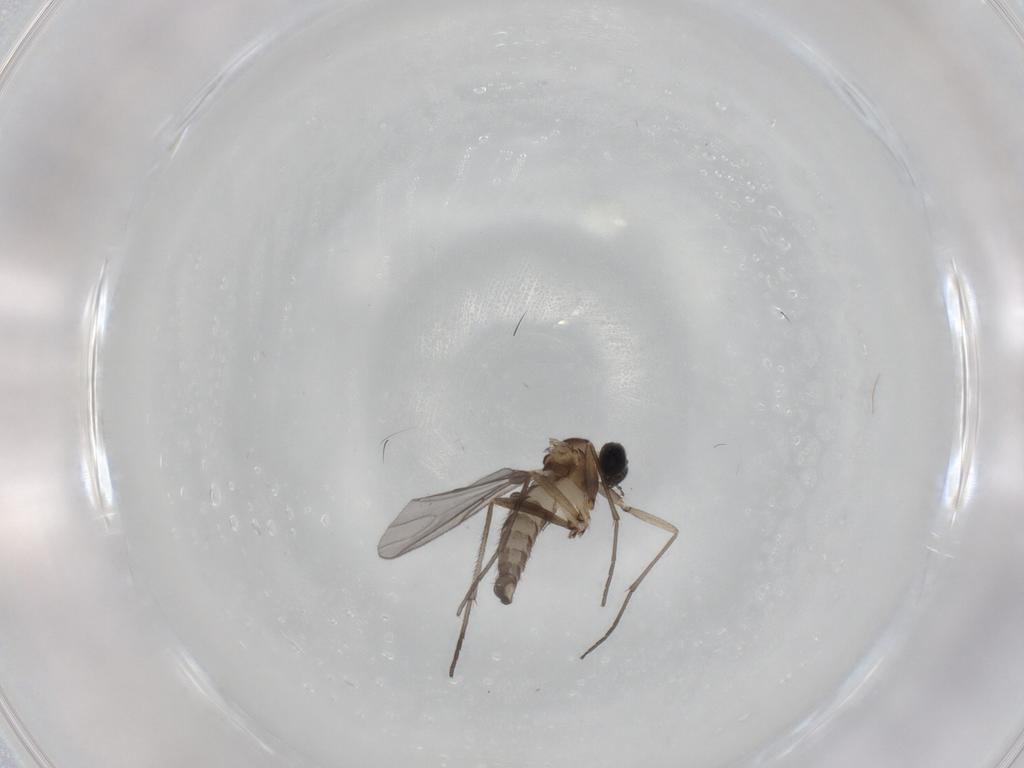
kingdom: Animalia
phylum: Arthropoda
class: Insecta
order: Diptera
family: Sciaridae
